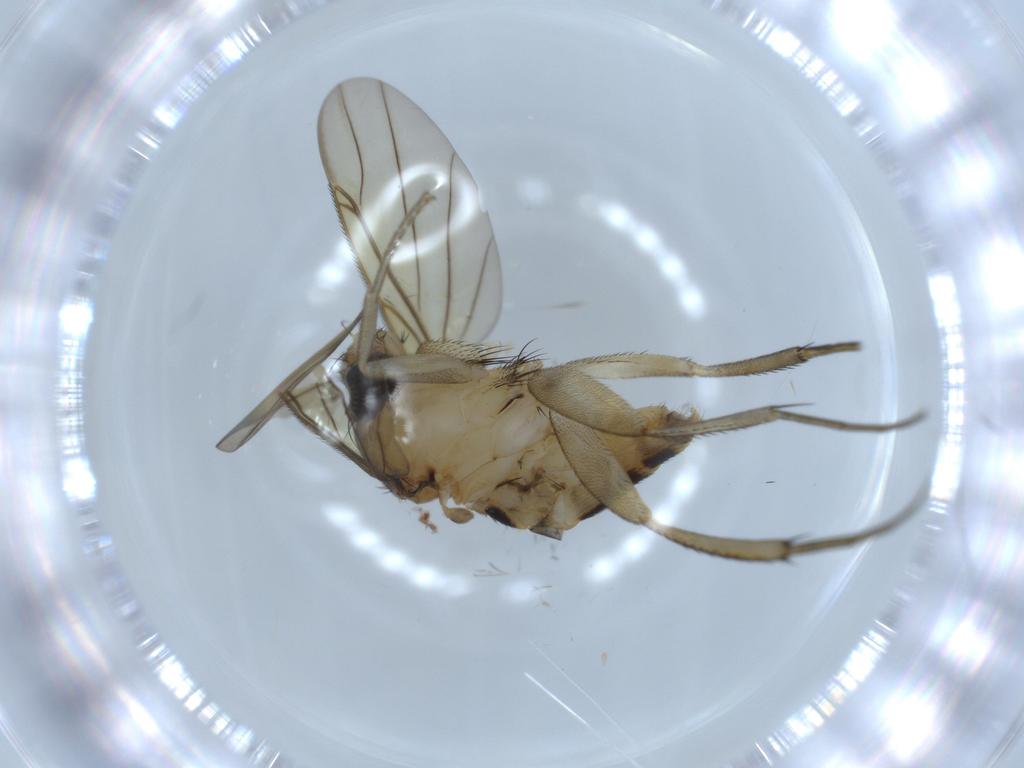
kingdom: Animalia
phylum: Arthropoda
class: Insecta
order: Diptera
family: Phoridae
